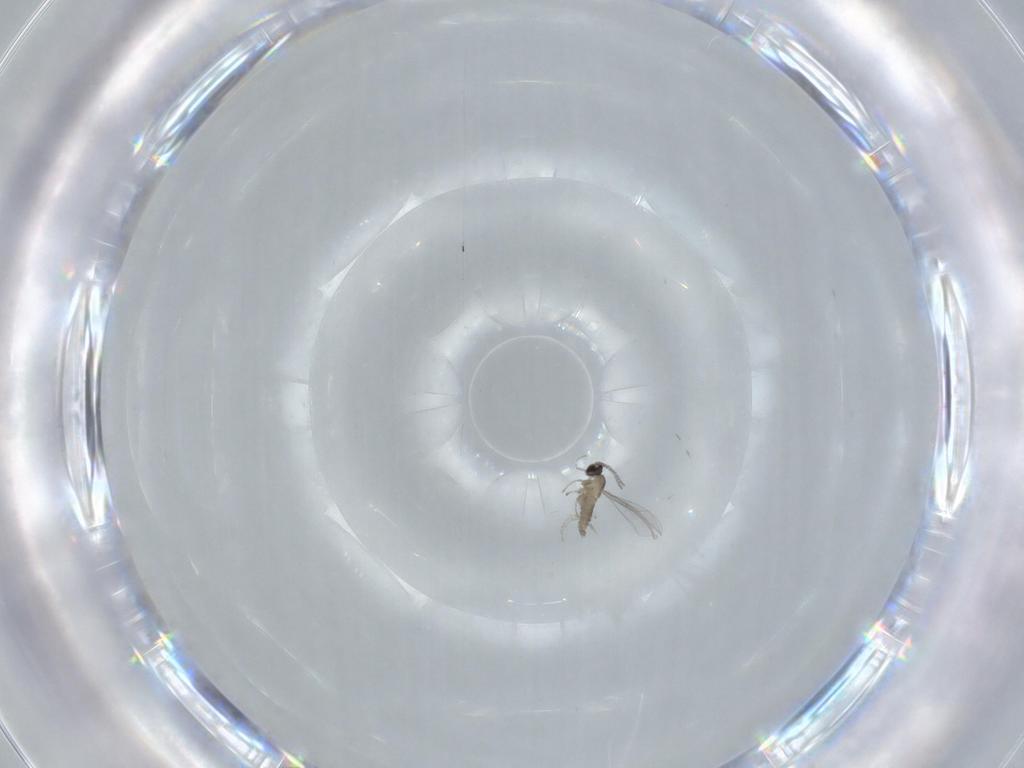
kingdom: Animalia
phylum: Arthropoda
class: Insecta
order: Diptera
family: Cecidomyiidae
